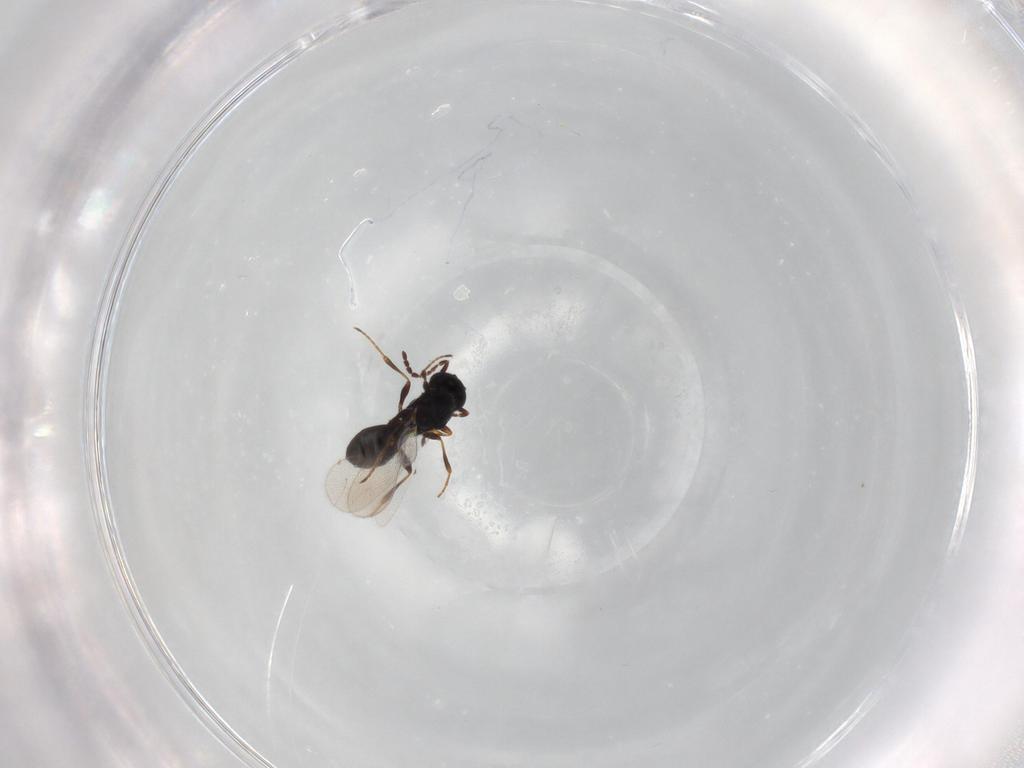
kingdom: Animalia
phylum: Arthropoda
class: Insecta
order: Hymenoptera
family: Platygastridae
